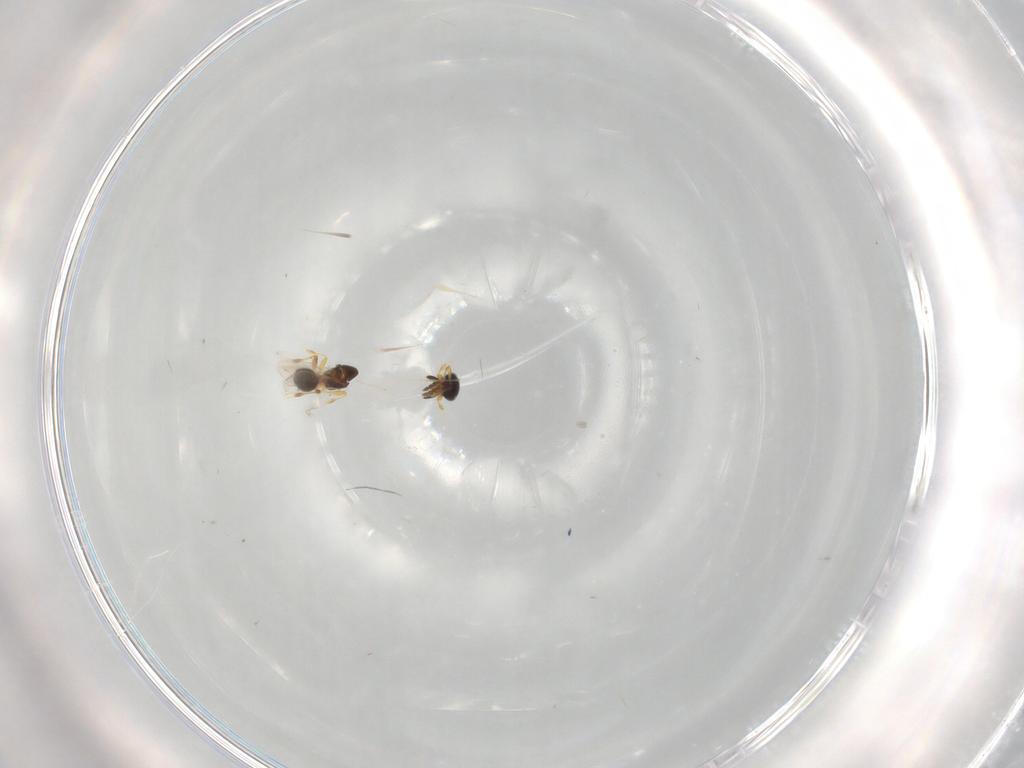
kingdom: Animalia
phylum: Arthropoda
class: Insecta
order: Hymenoptera
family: Platygastridae
